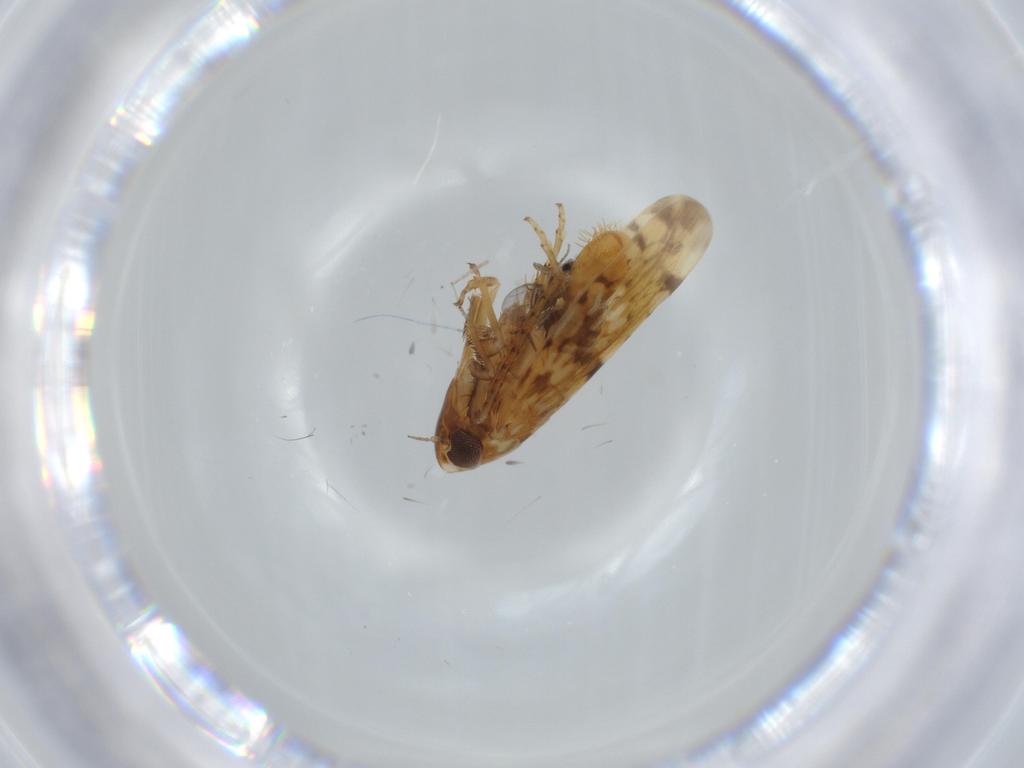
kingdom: Animalia
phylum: Arthropoda
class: Insecta
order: Hemiptera
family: Cicadellidae
